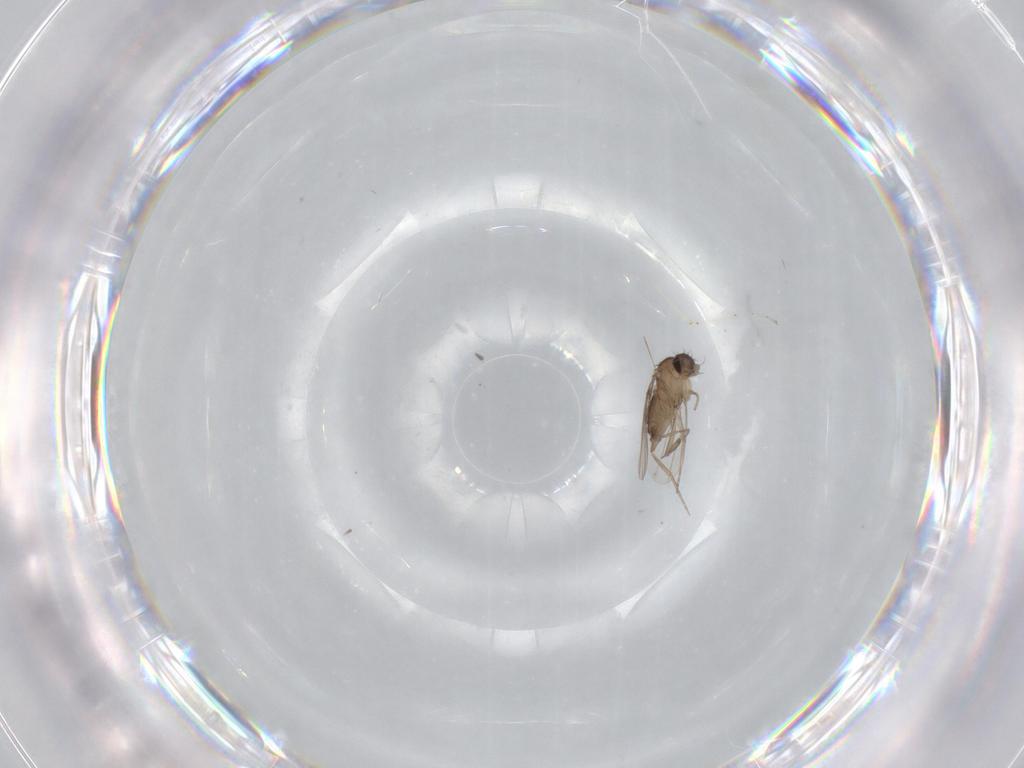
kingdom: Animalia
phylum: Arthropoda
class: Insecta
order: Diptera
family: Phoridae
